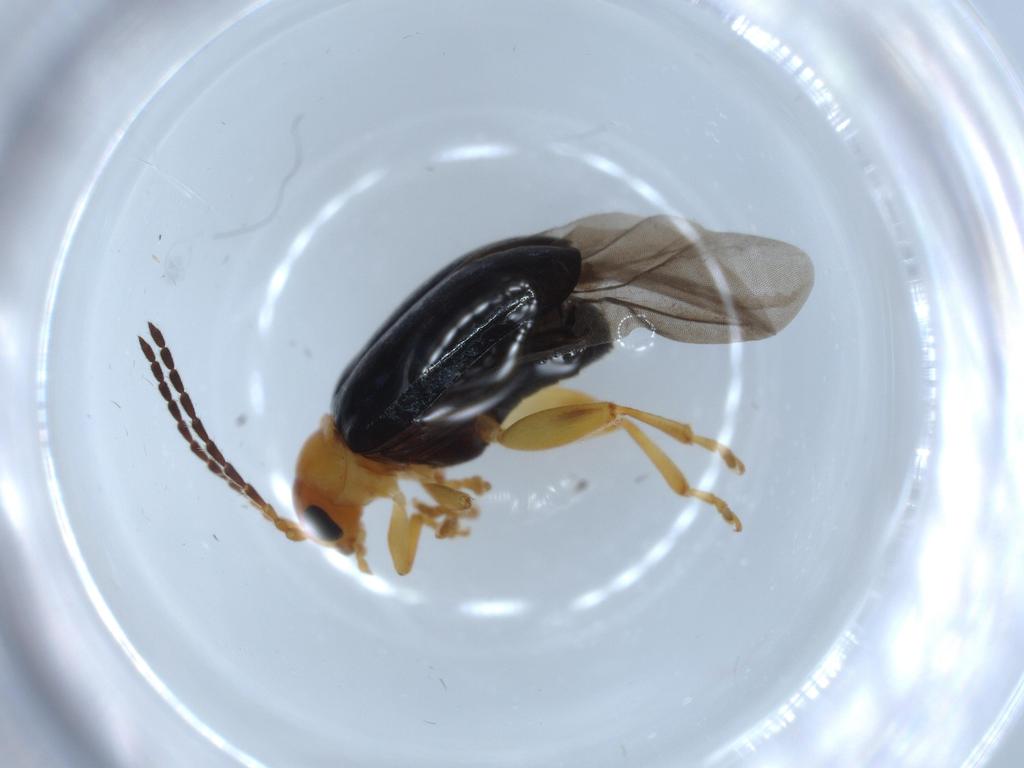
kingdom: Animalia
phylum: Arthropoda
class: Insecta
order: Coleoptera
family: Chrysomelidae
